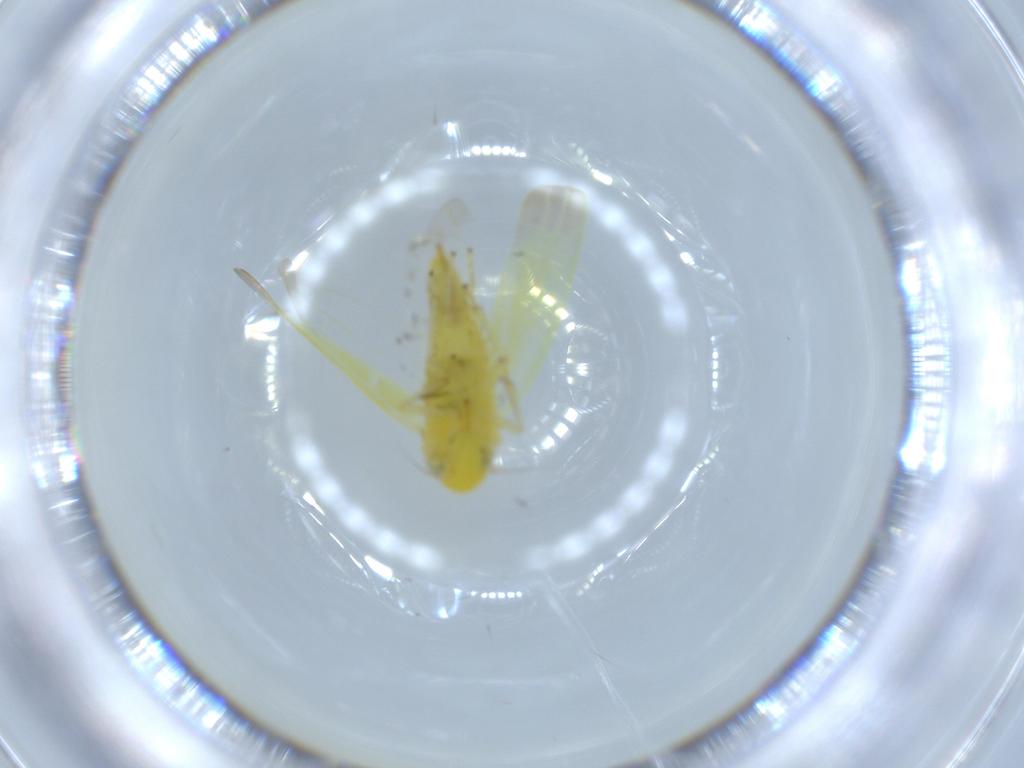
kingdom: Animalia
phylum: Arthropoda
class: Insecta
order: Hemiptera
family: Cicadellidae
